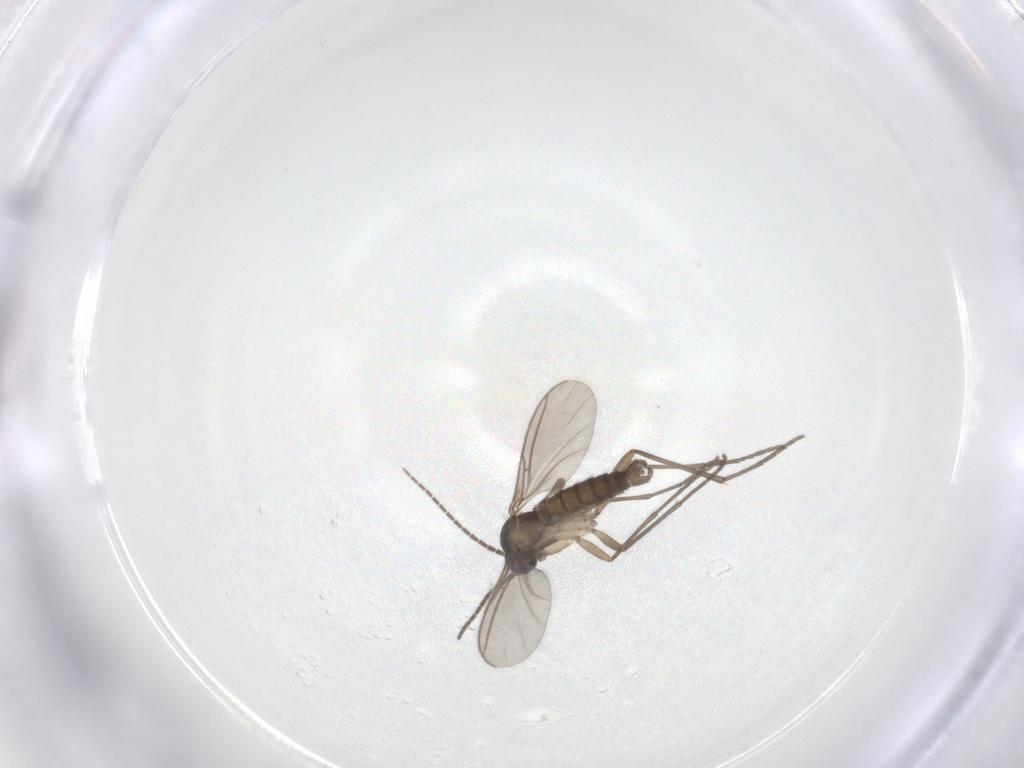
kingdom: Animalia
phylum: Arthropoda
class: Insecta
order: Diptera
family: Sciaridae
